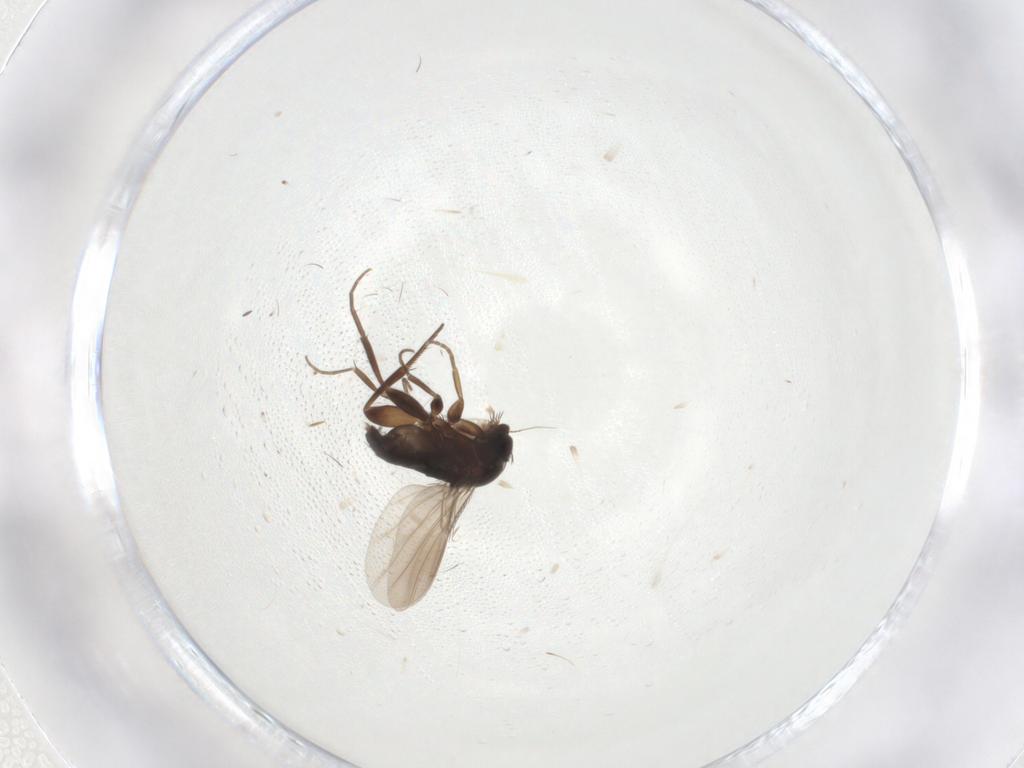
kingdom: Animalia
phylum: Arthropoda
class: Insecta
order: Diptera
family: Phoridae
